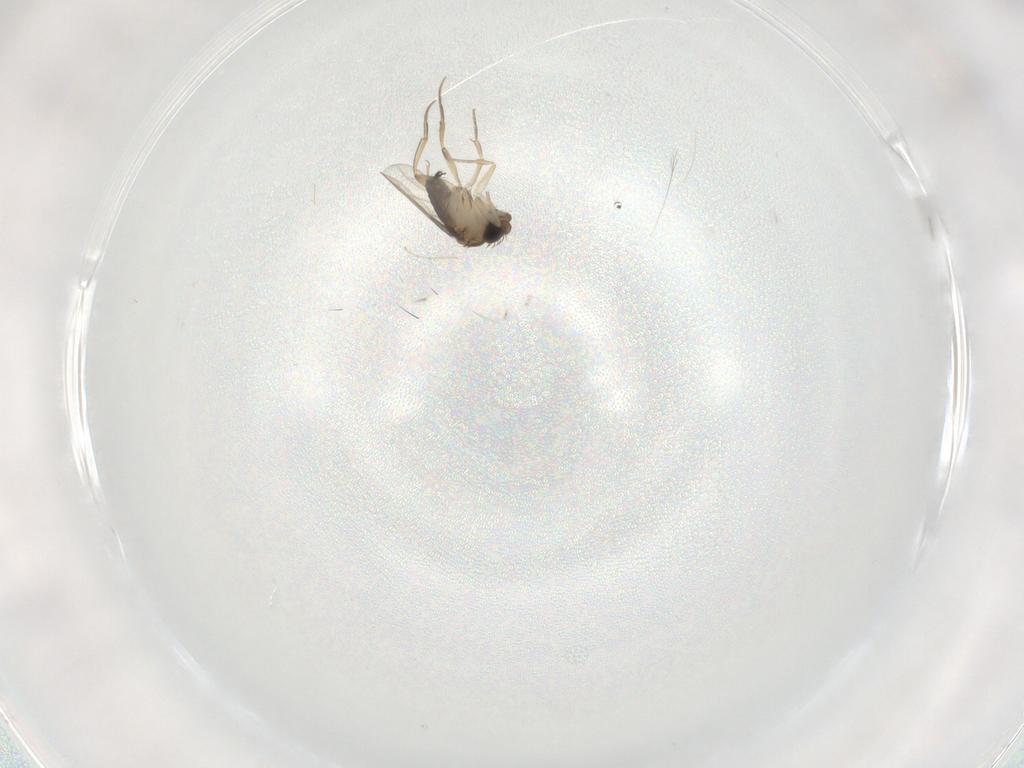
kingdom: Animalia
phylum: Arthropoda
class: Insecta
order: Diptera
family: Phoridae
